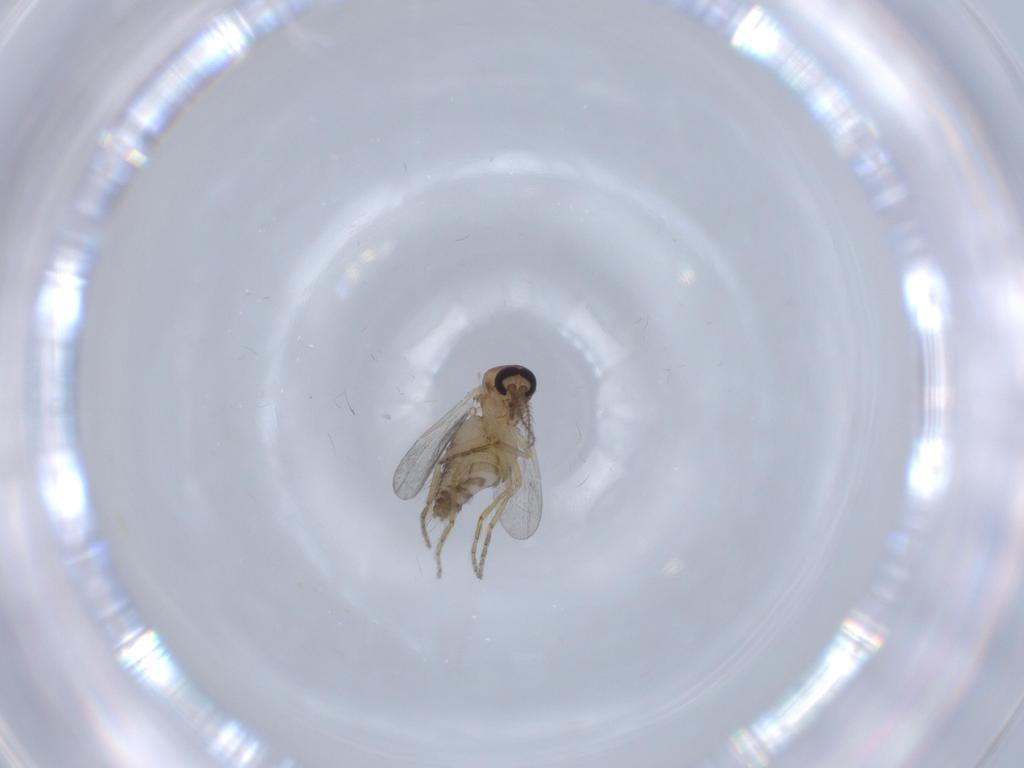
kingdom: Animalia
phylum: Arthropoda
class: Insecta
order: Diptera
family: Ceratopogonidae
